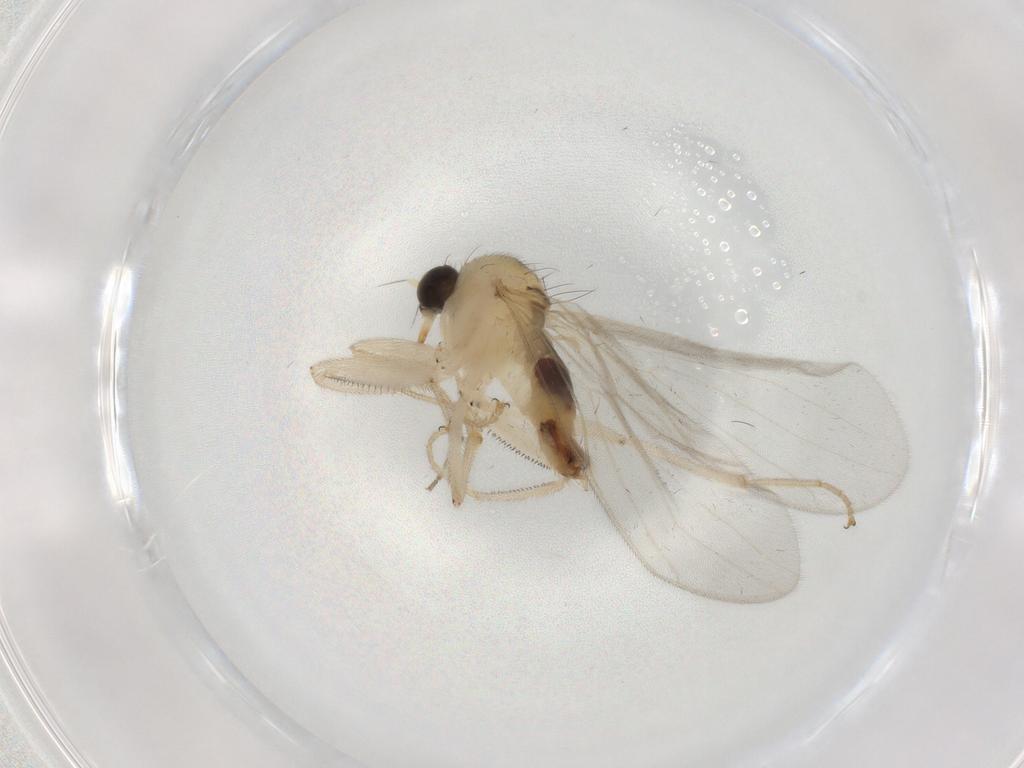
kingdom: Animalia
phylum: Arthropoda
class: Insecta
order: Diptera
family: Hybotidae
